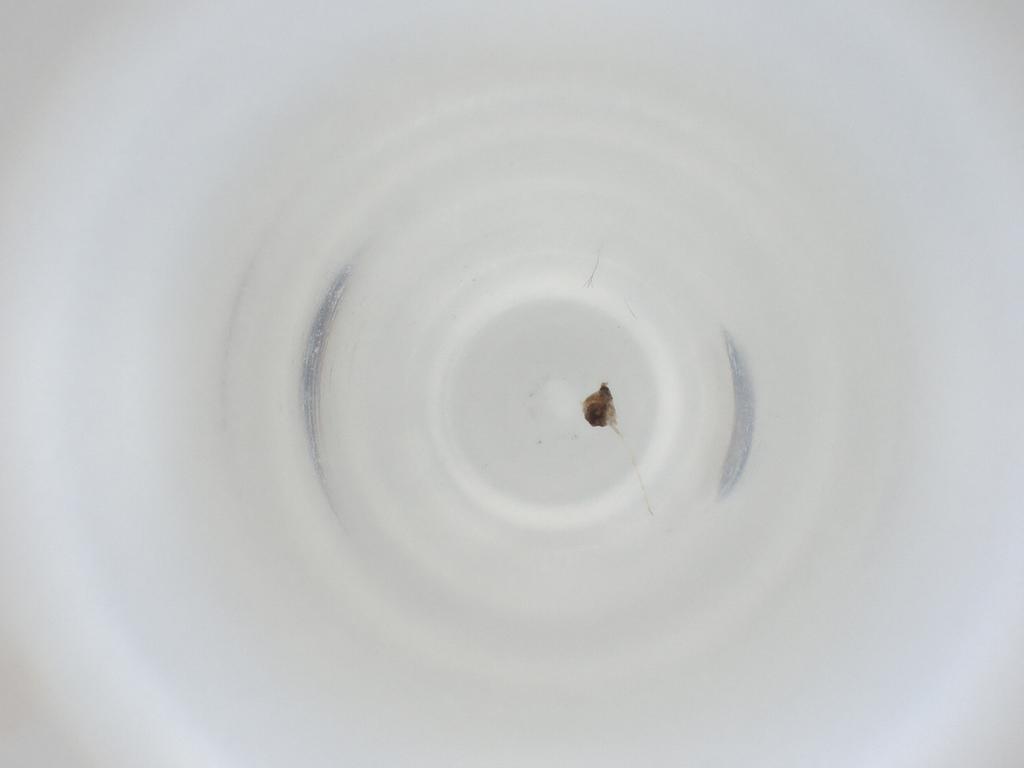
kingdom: Animalia
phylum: Arthropoda
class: Insecta
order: Diptera
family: Cecidomyiidae
